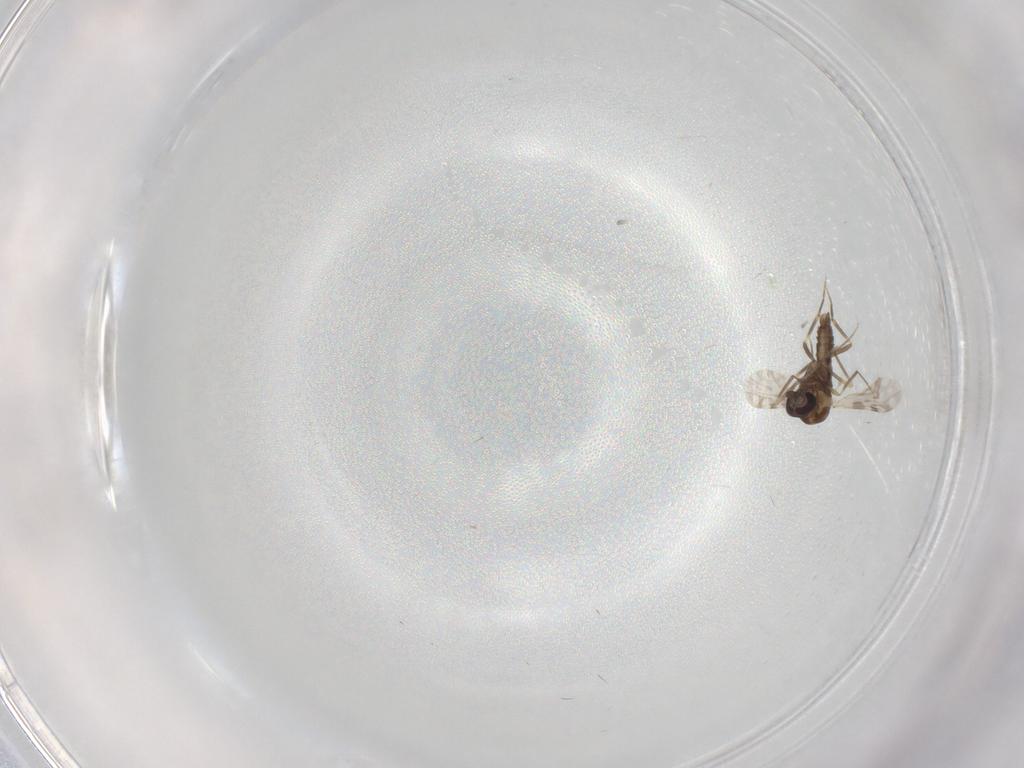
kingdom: Animalia
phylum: Arthropoda
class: Insecta
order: Diptera
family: Ceratopogonidae
